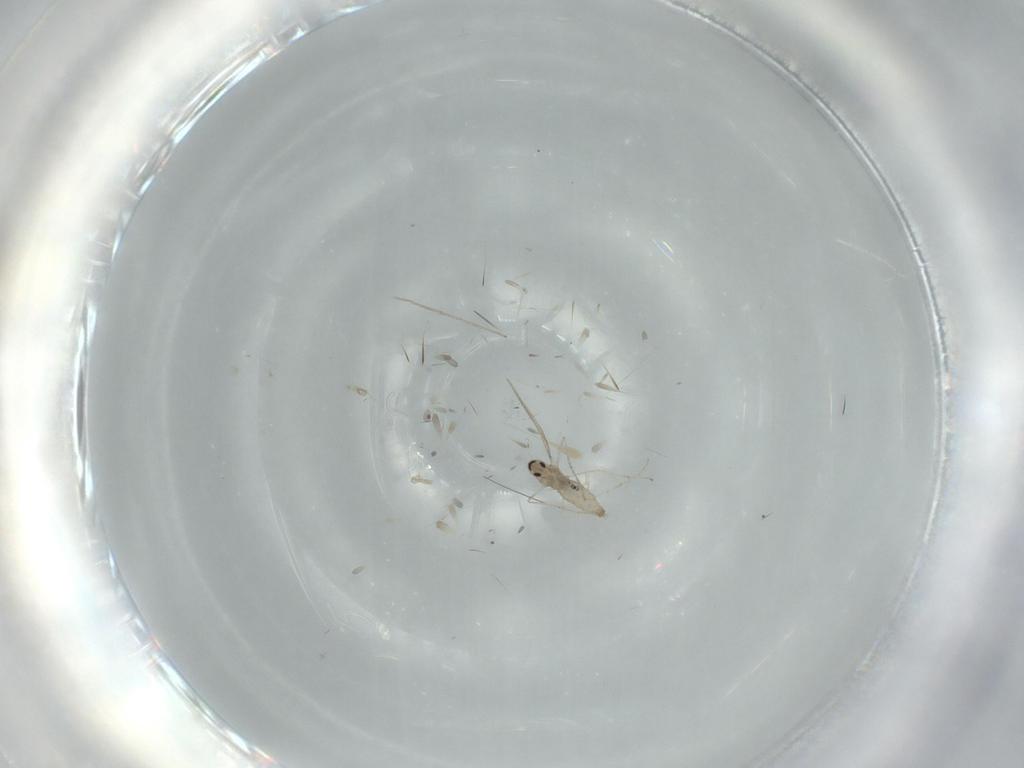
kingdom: Animalia
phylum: Arthropoda
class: Insecta
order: Diptera
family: Cecidomyiidae
